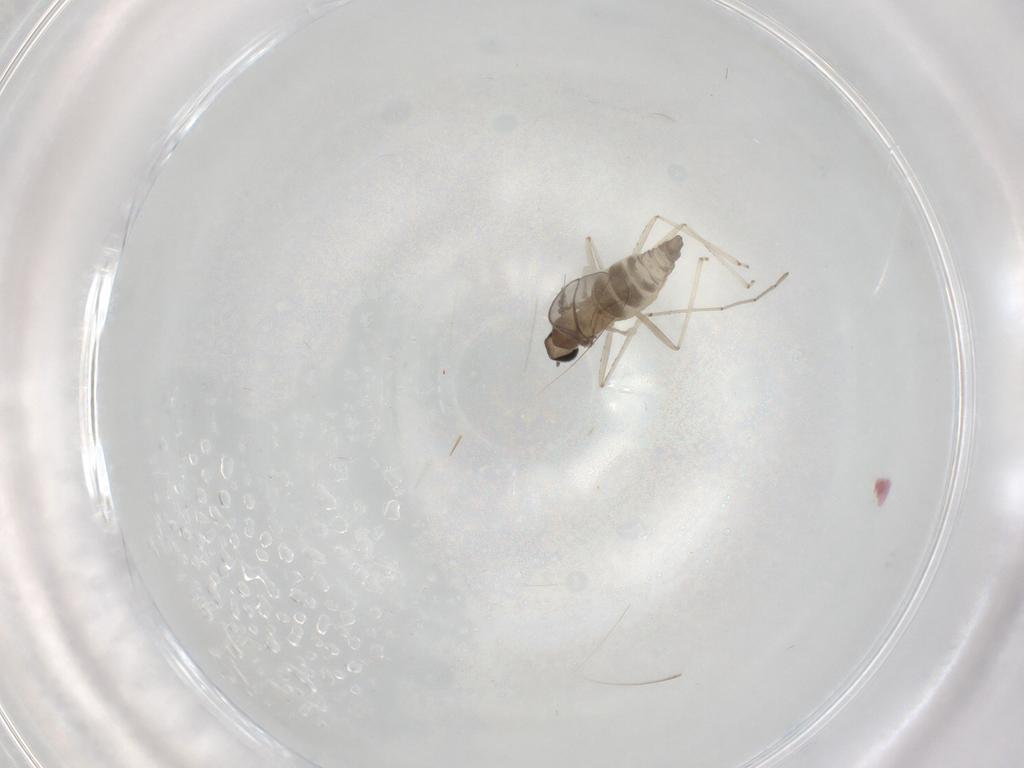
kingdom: Animalia
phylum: Arthropoda
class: Insecta
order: Diptera
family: Cecidomyiidae
